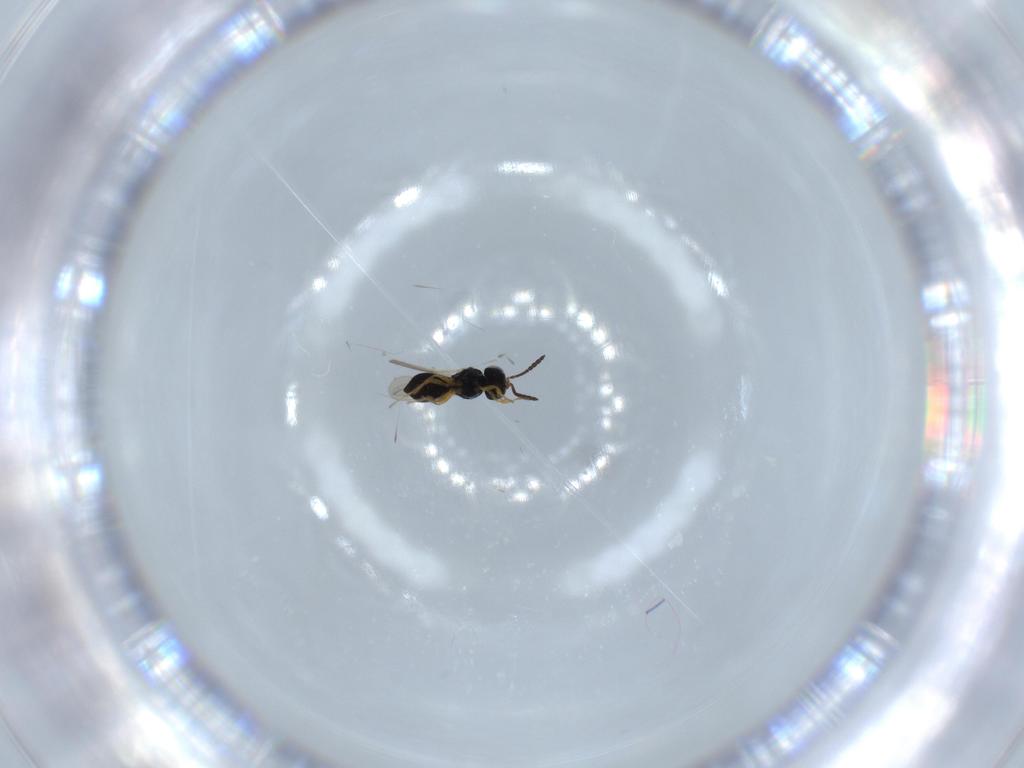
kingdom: Animalia
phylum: Arthropoda
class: Insecta
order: Hymenoptera
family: Scelionidae
